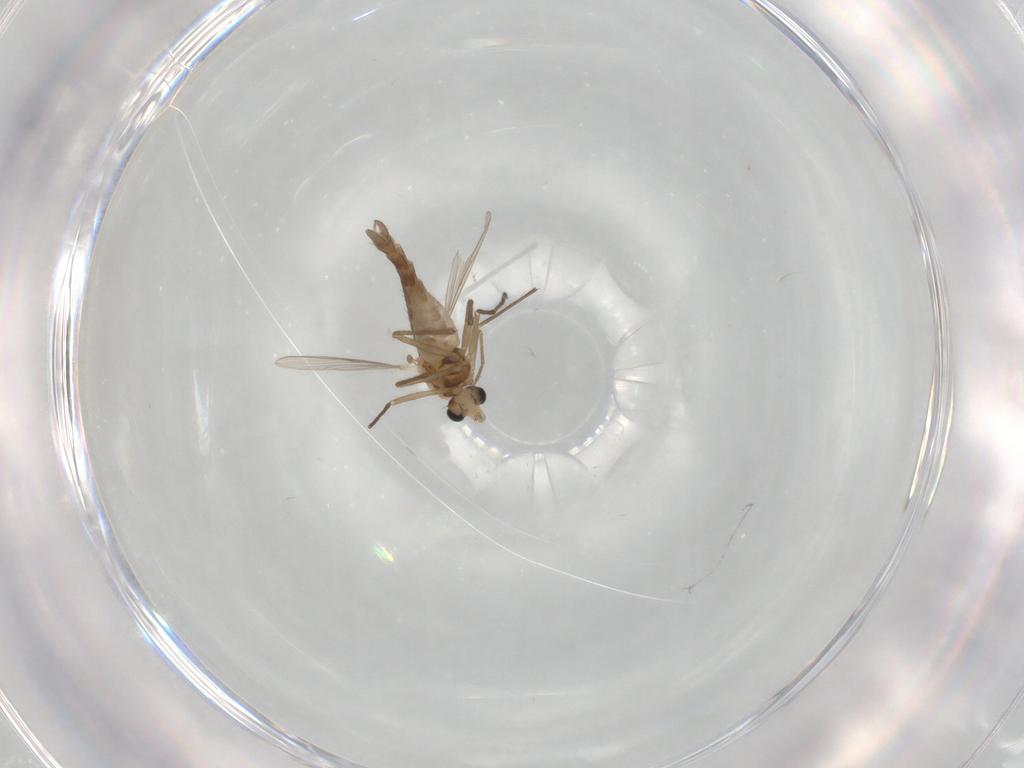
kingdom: Animalia
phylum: Arthropoda
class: Insecta
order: Diptera
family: Chironomidae
